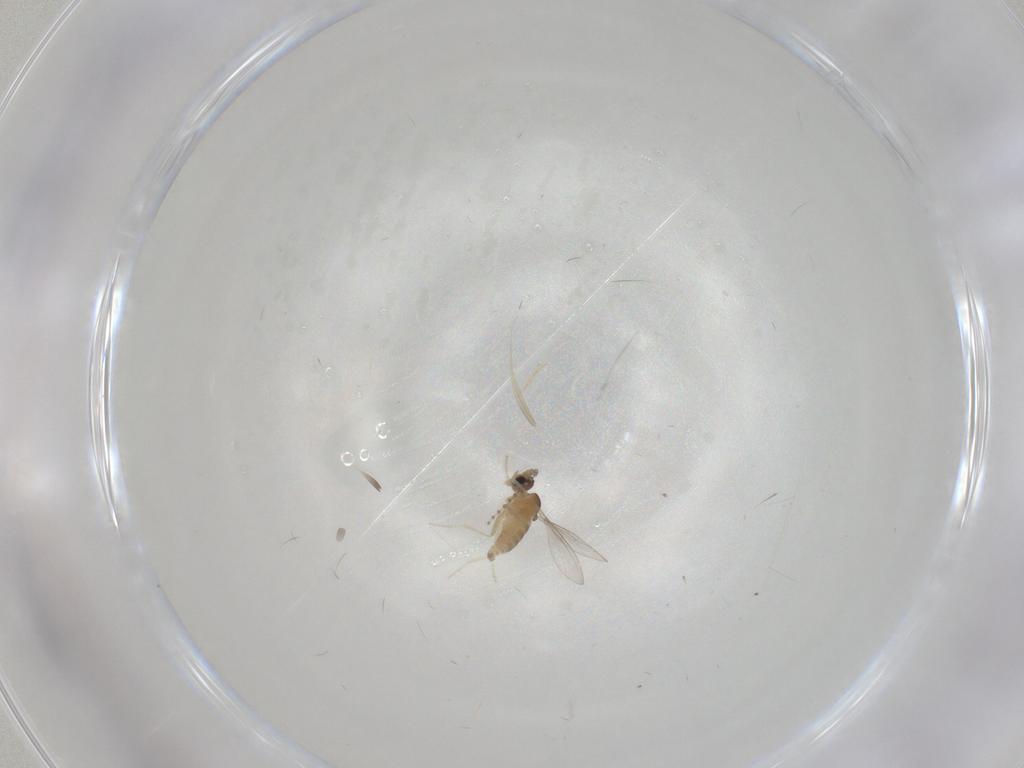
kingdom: Animalia
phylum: Arthropoda
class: Insecta
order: Diptera
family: Cecidomyiidae
